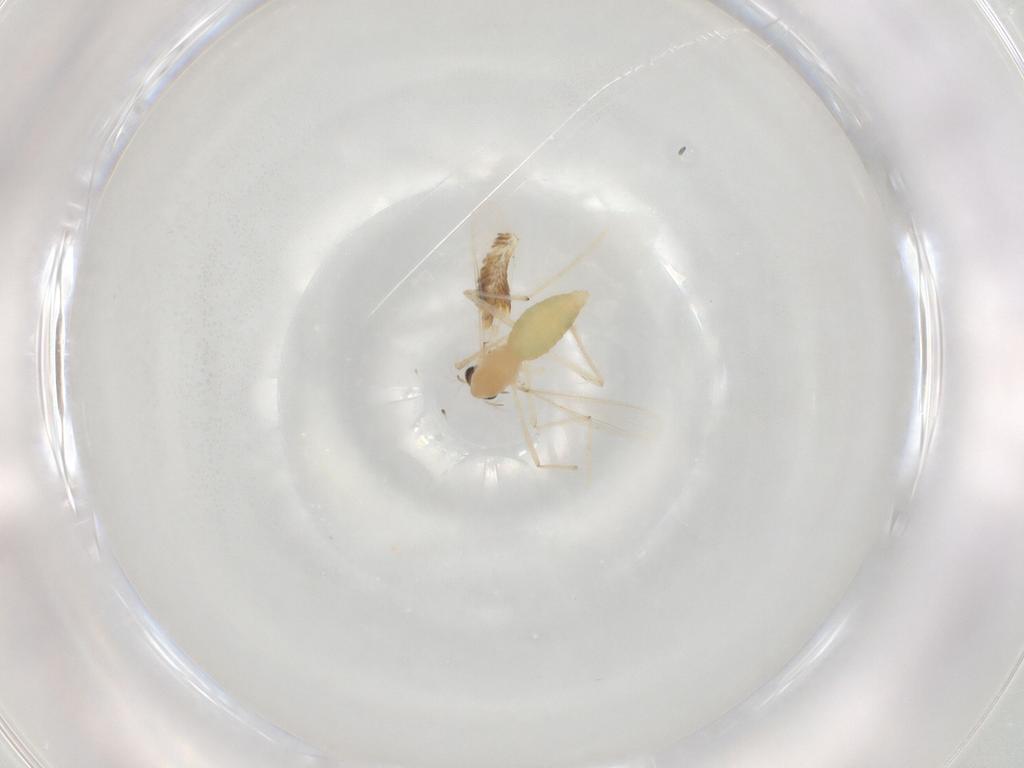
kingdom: Animalia
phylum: Arthropoda
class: Insecta
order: Diptera
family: Chironomidae
